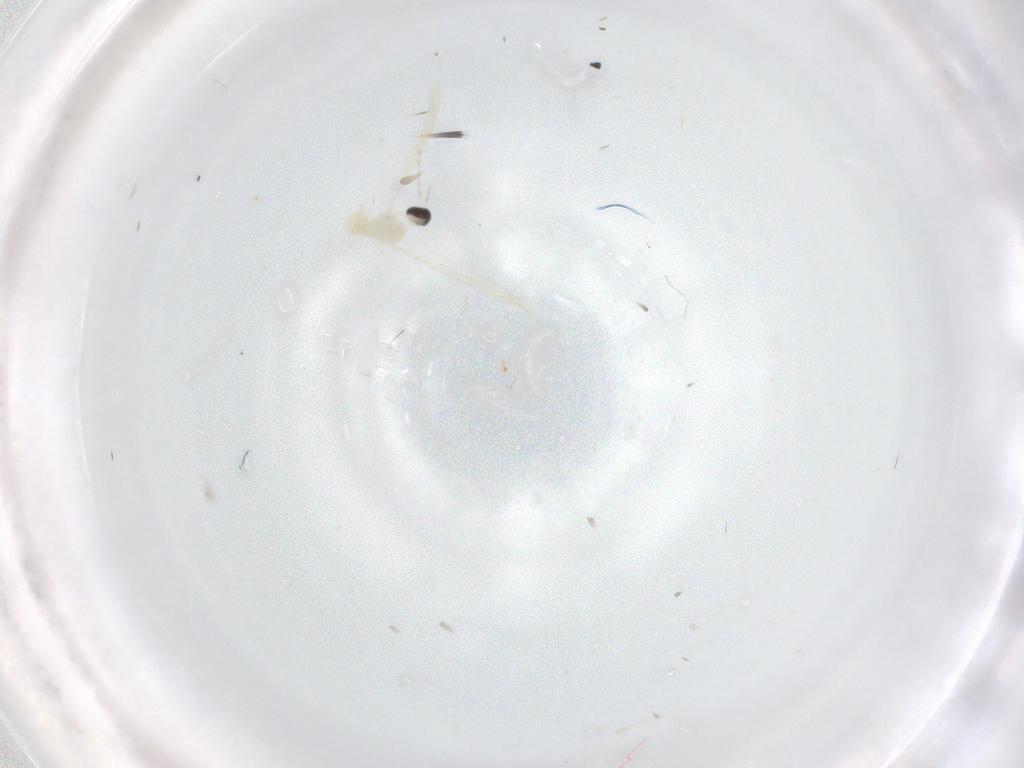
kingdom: Animalia
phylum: Arthropoda
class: Insecta
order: Diptera
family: Cecidomyiidae
